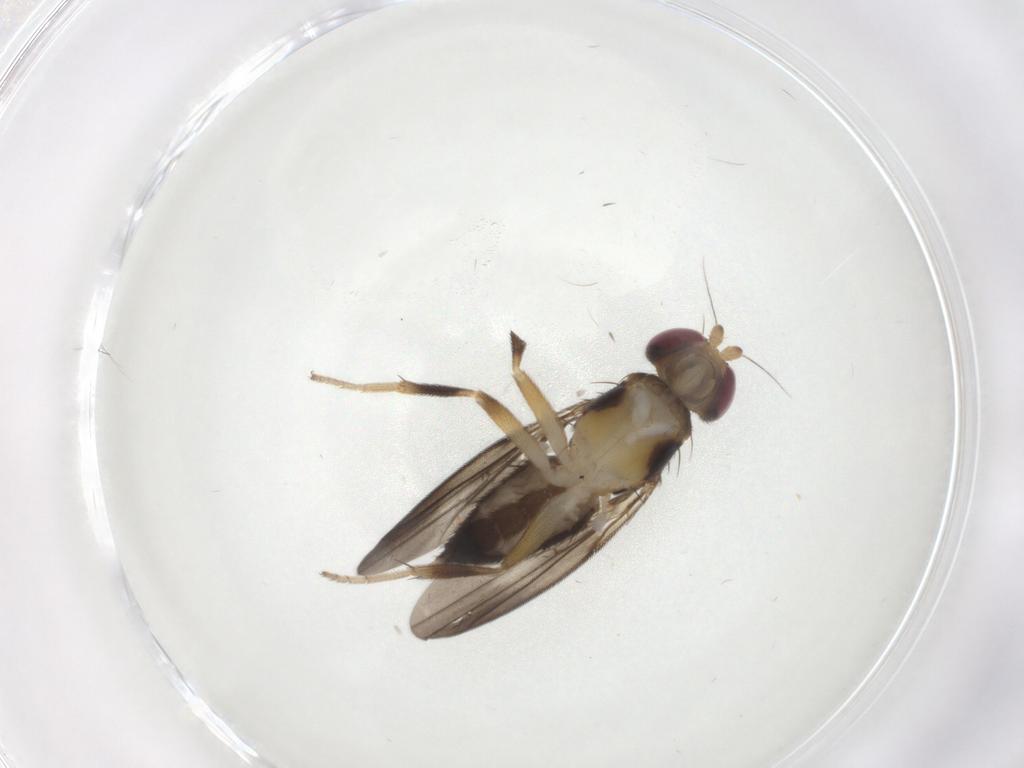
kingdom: Animalia
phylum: Arthropoda
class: Insecta
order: Diptera
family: Clusiidae
